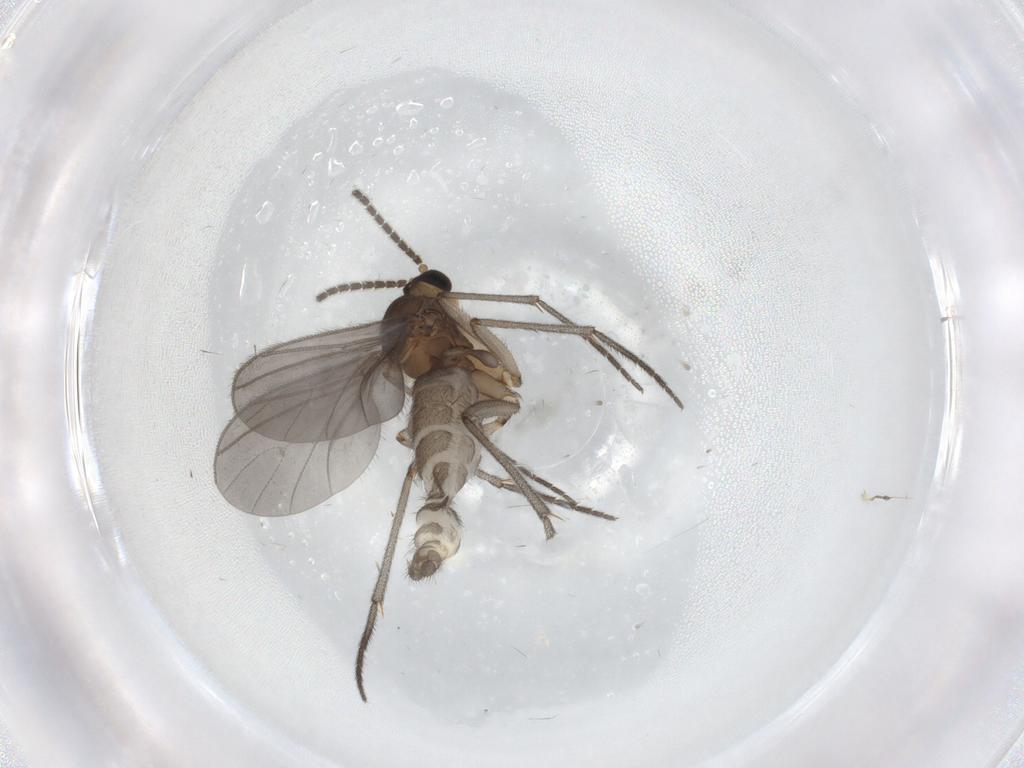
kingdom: Animalia
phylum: Arthropoda
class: Insecta
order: Diptera
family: Sciaridae
